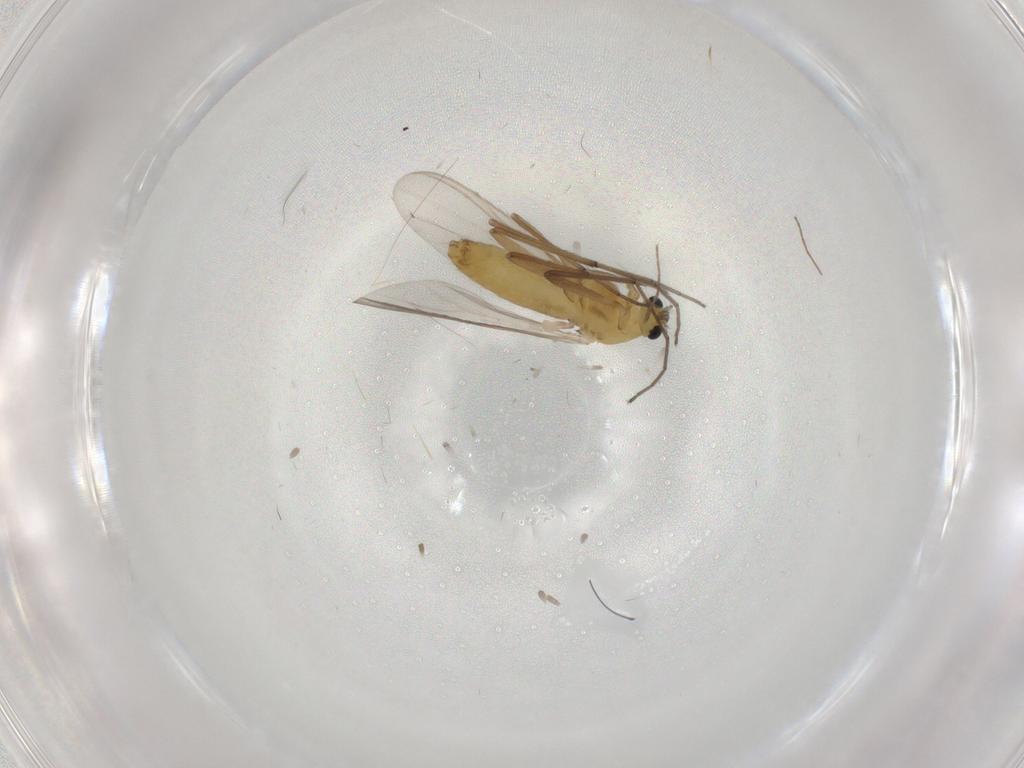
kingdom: Animalia
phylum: Arthropoda
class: Insecta
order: Diptera
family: Chironomidae
